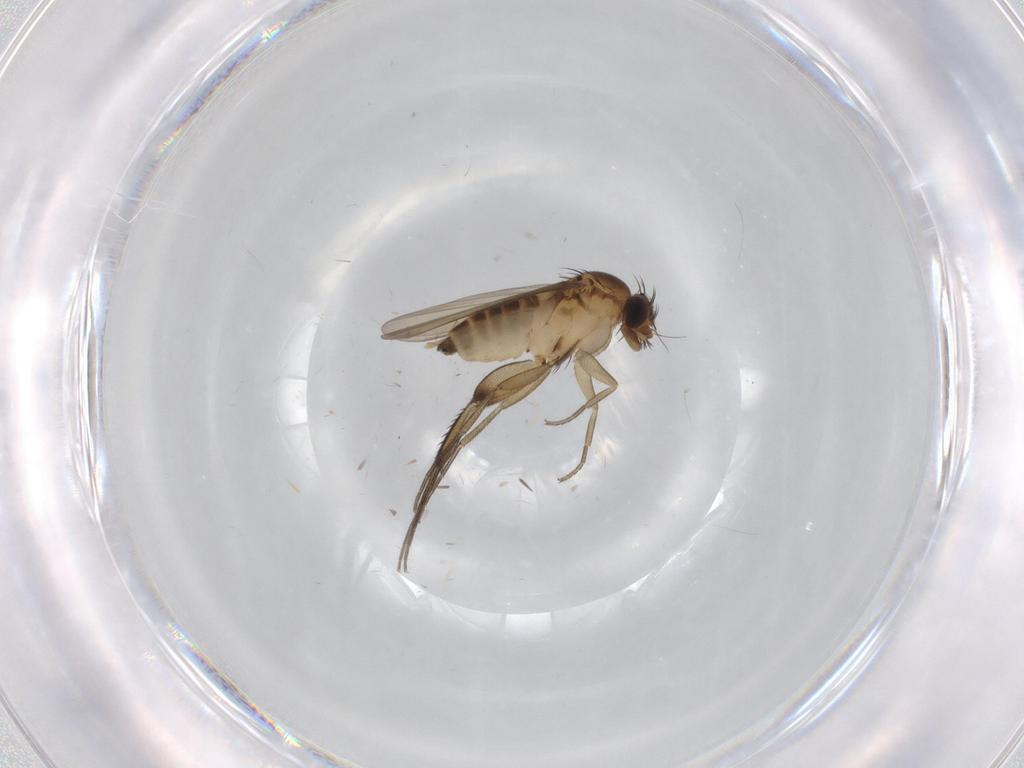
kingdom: Animalia
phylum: Arthropoda
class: Insecta
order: Diptera
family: Phoridae
